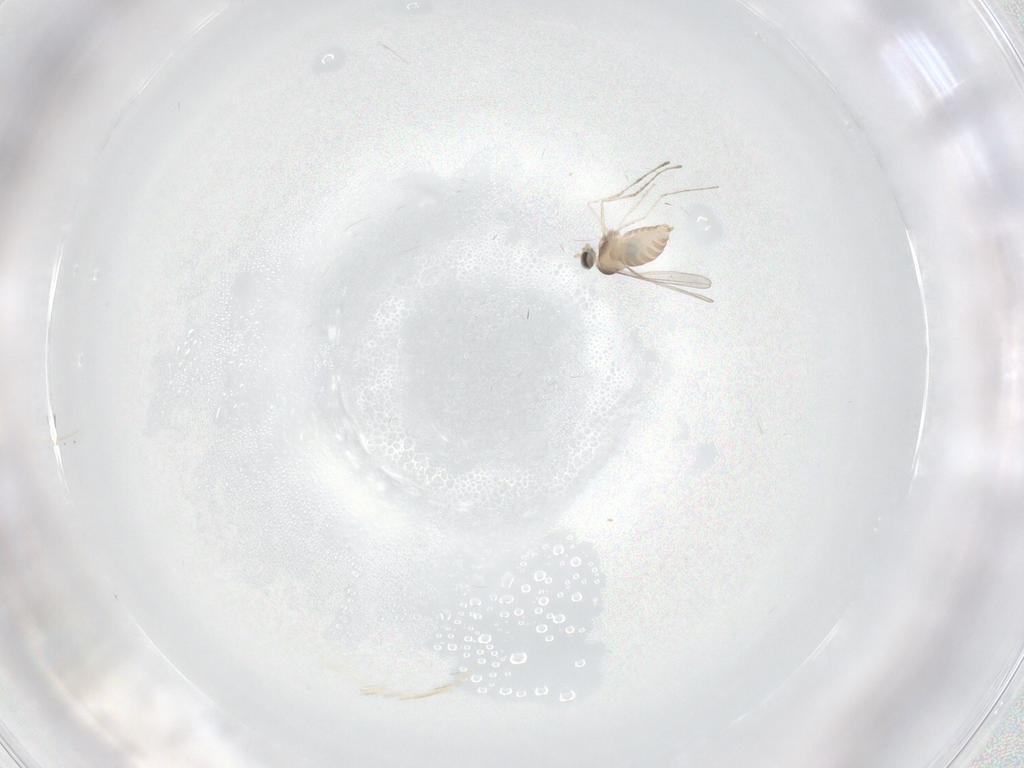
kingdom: Animalia
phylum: Arthropoda
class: Insecta
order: Diptera
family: Cecidomyiidae
